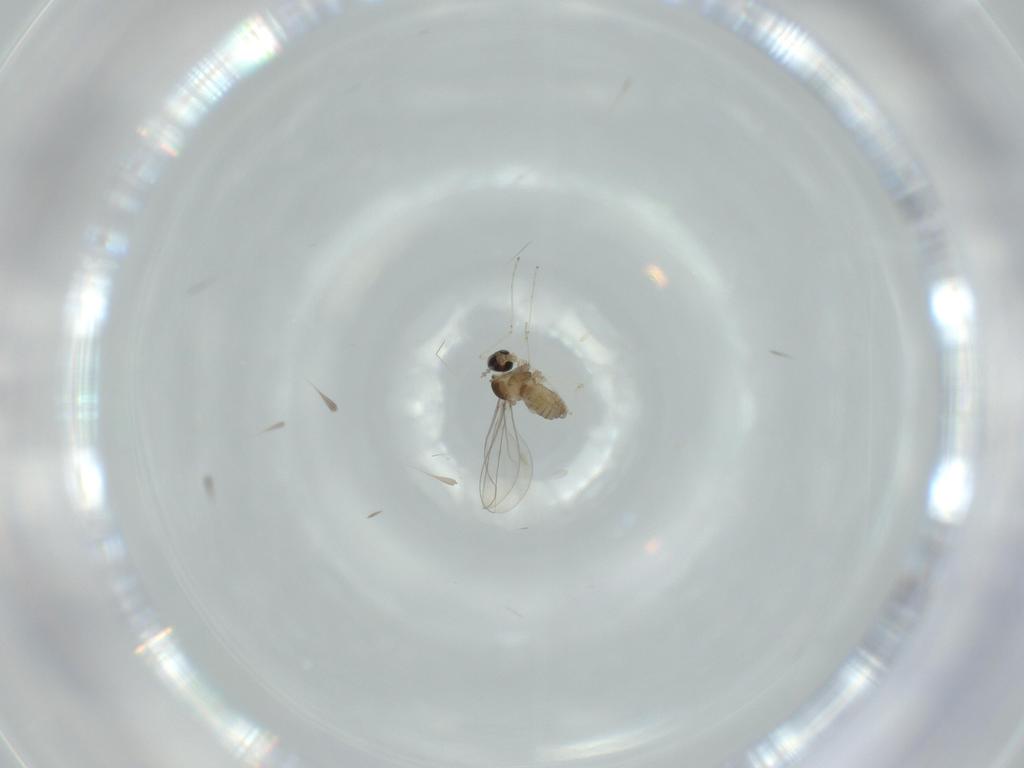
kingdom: Animalia
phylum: Arthropoda
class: Insecta
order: Diptera
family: Cecidomyiidae
